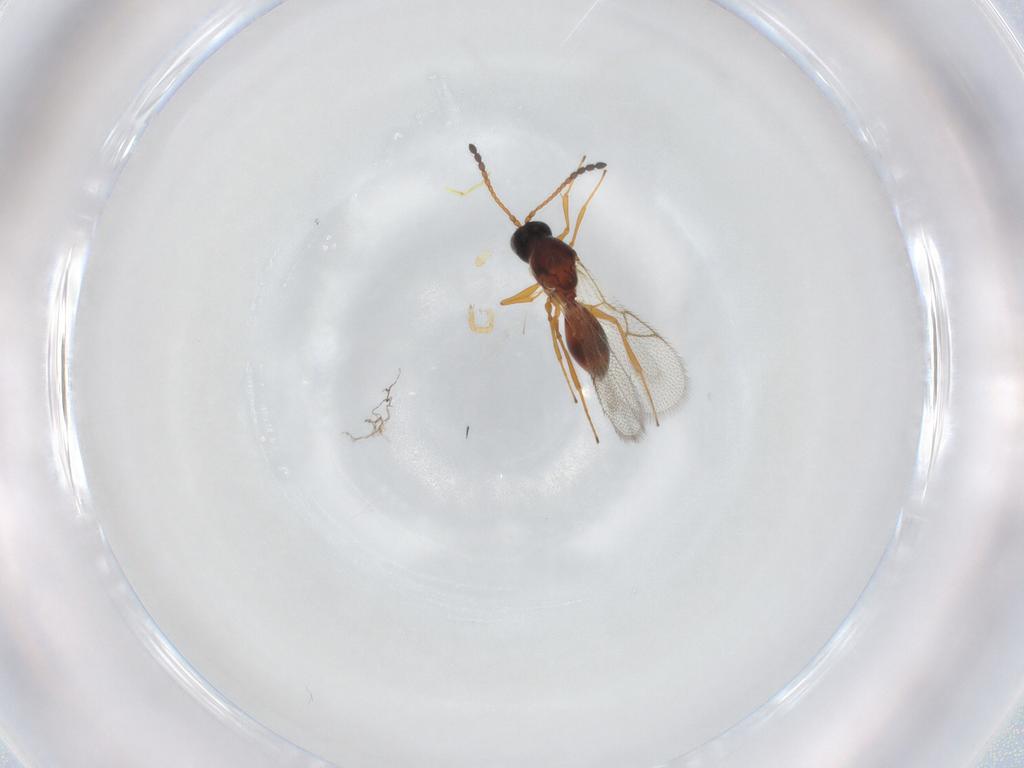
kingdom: Animalia
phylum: Arthropoda
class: Insecta
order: Hymenoptera
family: Figitidae
